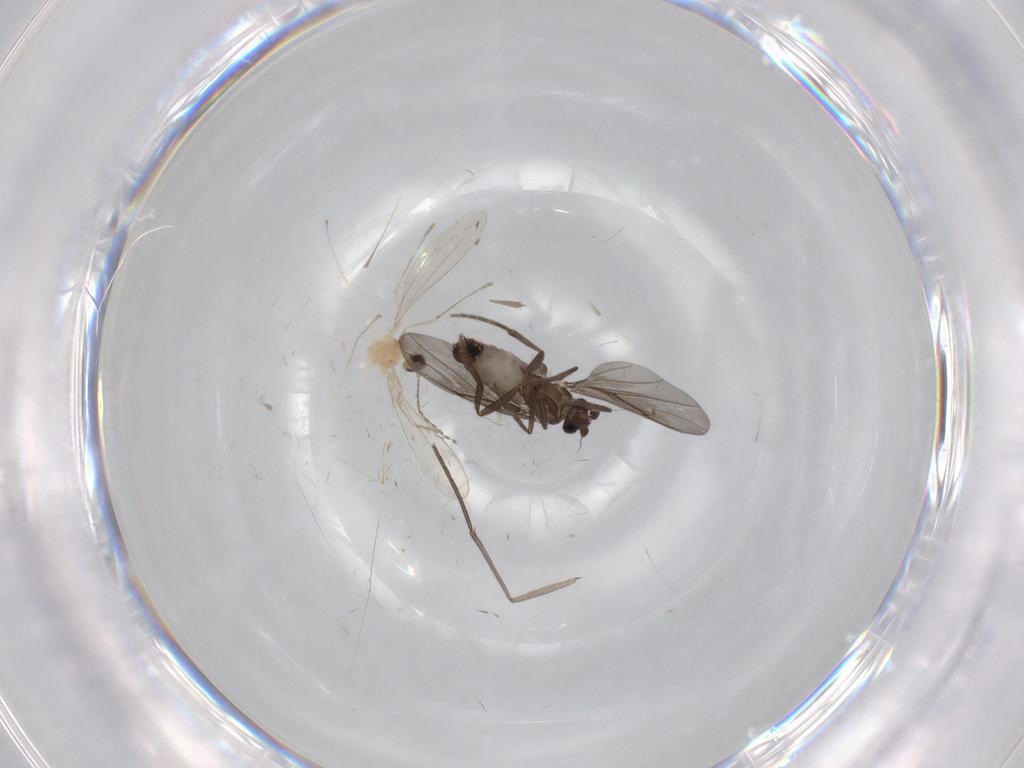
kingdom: Animalia
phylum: Arthropoda
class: Insecta
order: Diptera
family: Phoridae
